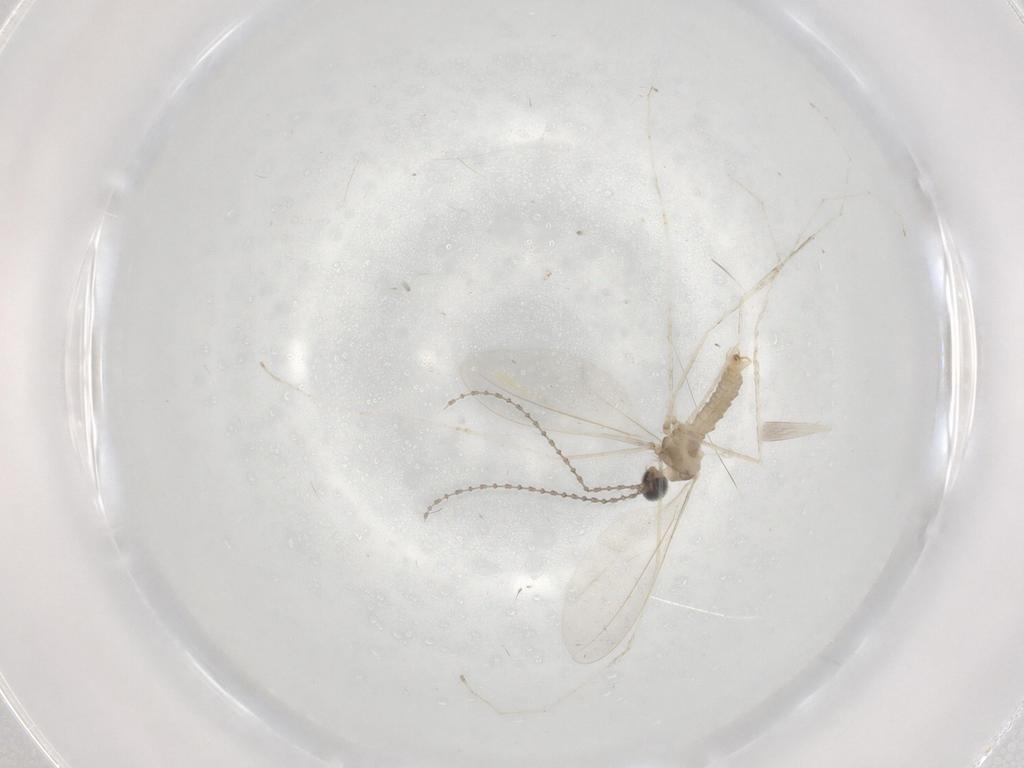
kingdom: Animalia
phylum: Arthropoda
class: Insecta
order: Diptera
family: Cecidomyiidae
